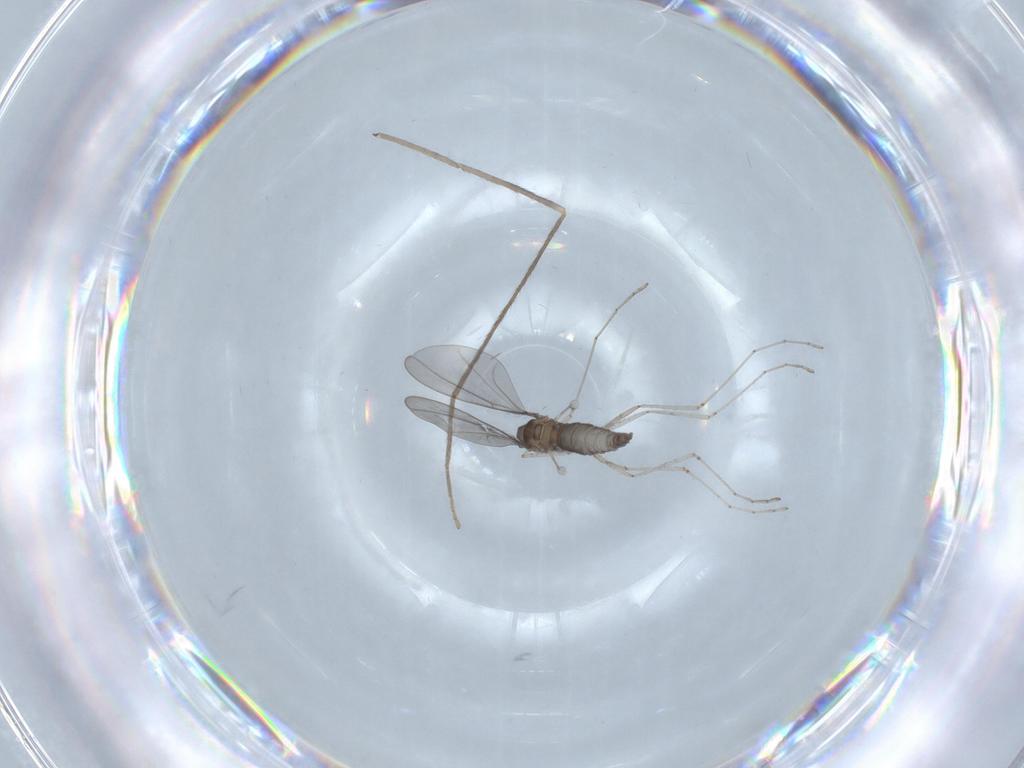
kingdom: Animalia
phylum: Arthropoda
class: Insecta
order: Diptera
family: Cecidomyiidae
